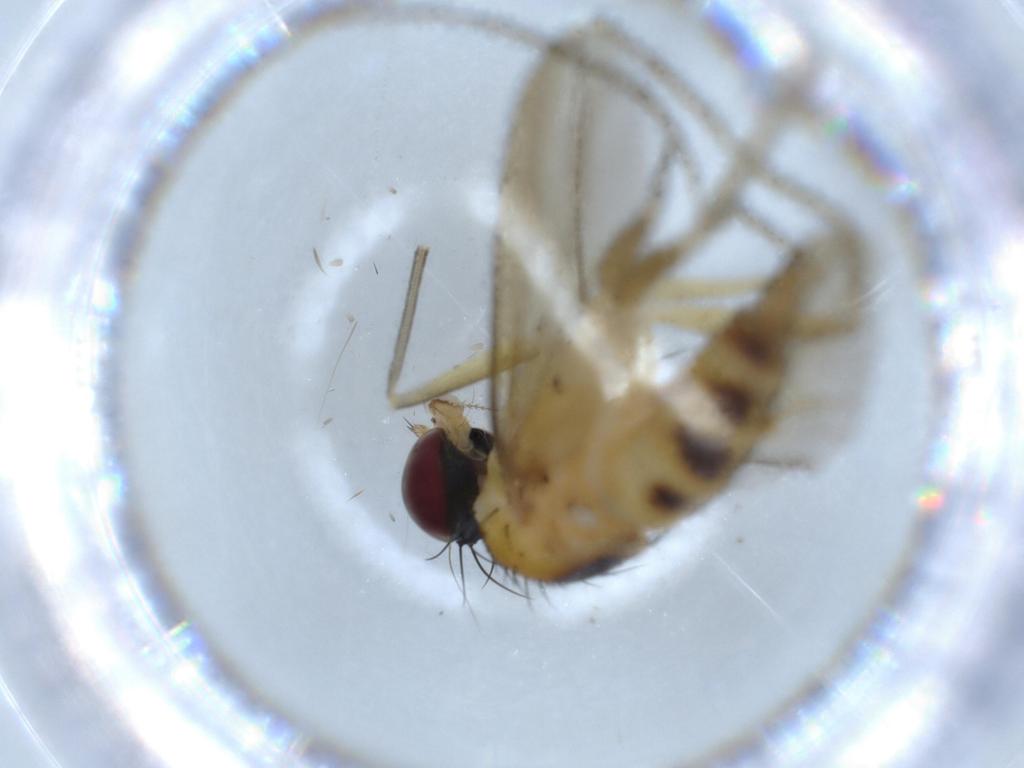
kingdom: Animalia
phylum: Arthropoda
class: Insecta
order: Diptera
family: Dolichopodidae
